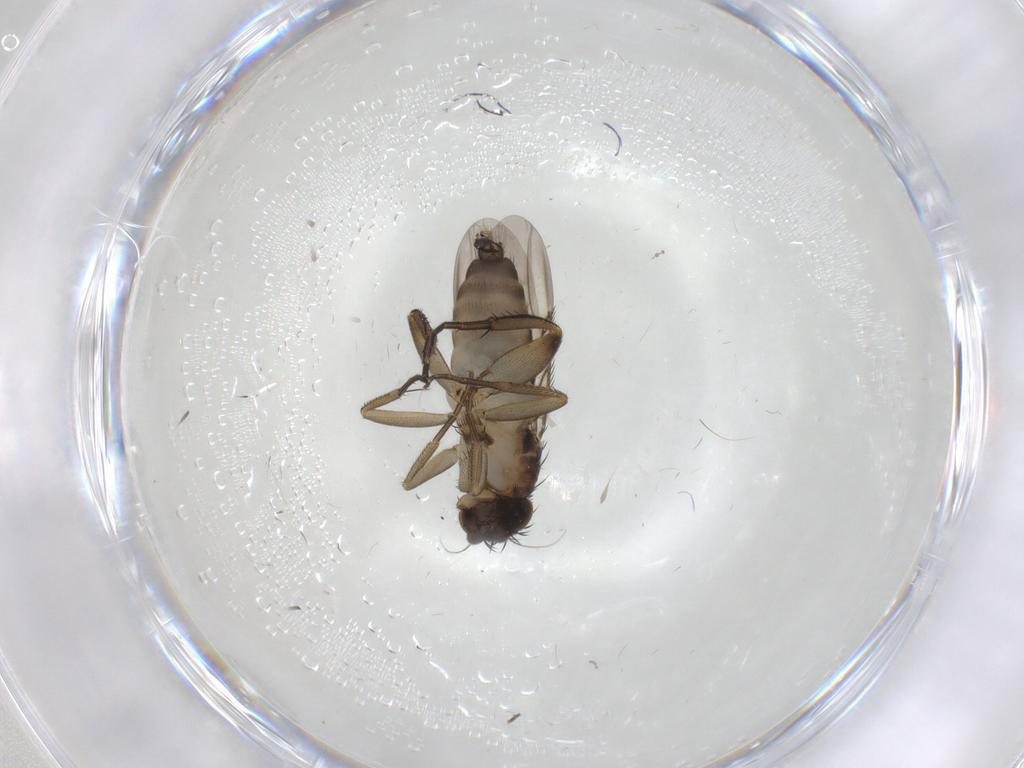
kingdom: Animalia
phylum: Arthropoda
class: Insecta
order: Diptera
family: Phoridae
